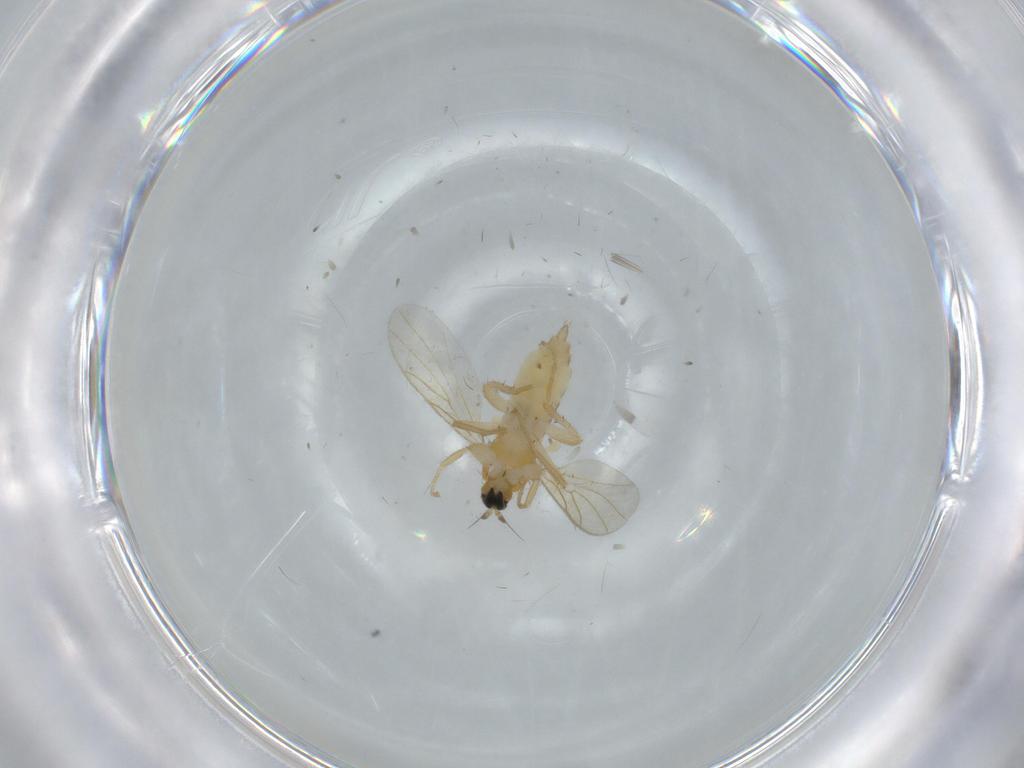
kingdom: Animalia
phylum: Arthropoda
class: Insecta
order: Diptera
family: Hybotidae
